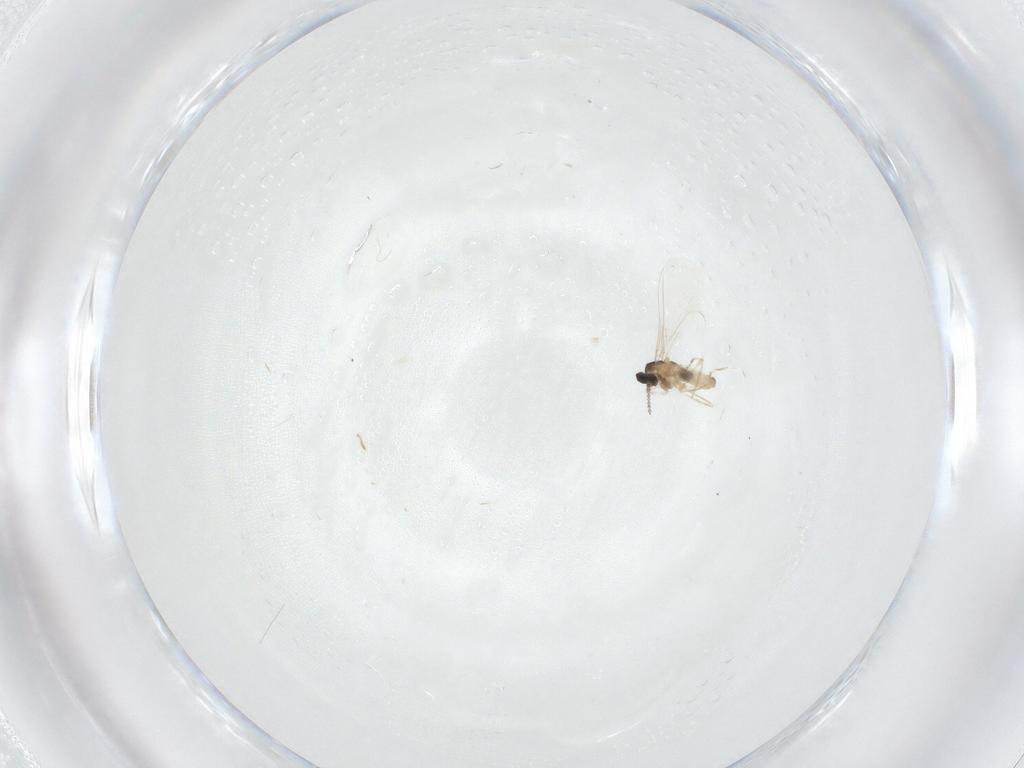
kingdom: Animalia
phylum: Arthropoda
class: Insecta
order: Diptera
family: Cecidomyiidae
